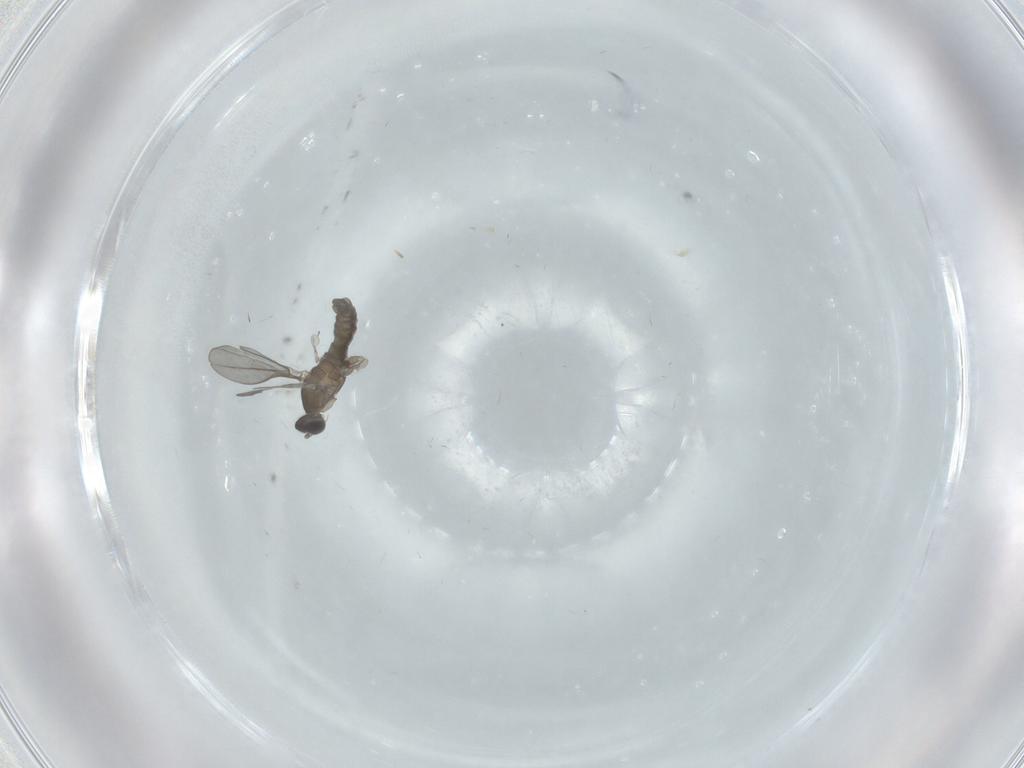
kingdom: Animalia
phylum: Arthropoda
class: Insecta
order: Diptera
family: Cecidomyiidae
